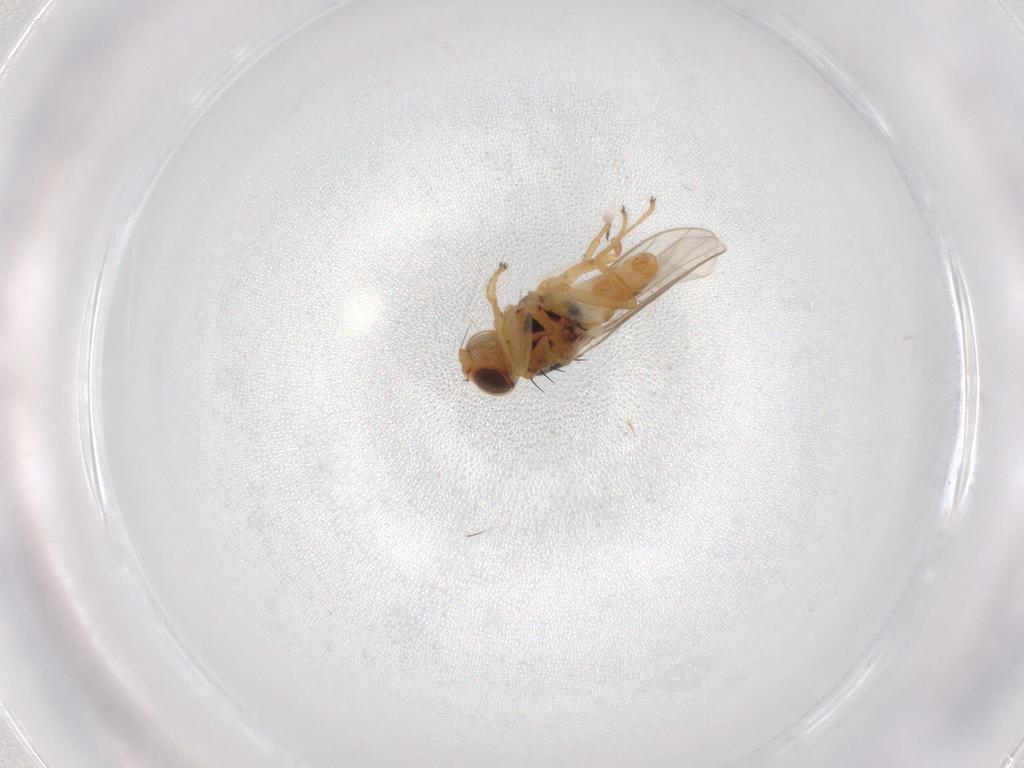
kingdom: Animalia
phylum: Arthropoda
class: Insecta
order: Diptera
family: Chloropidae
